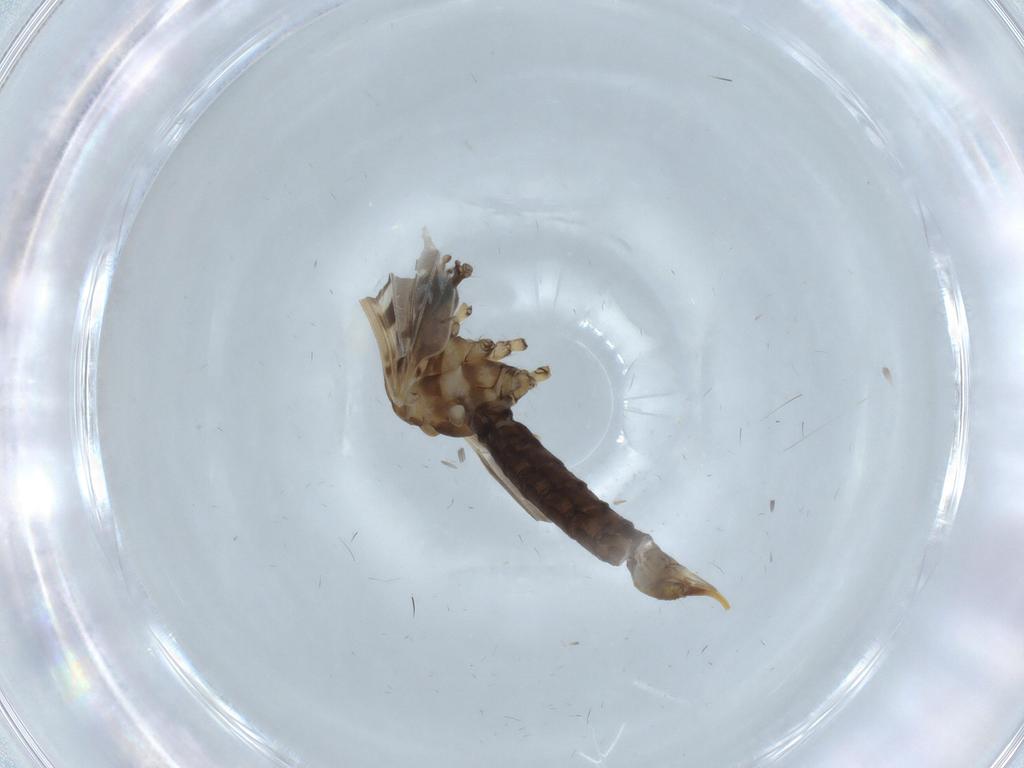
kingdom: Animalia
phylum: Arthropoda
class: Insecta
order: Diptera
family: Limoniidae
